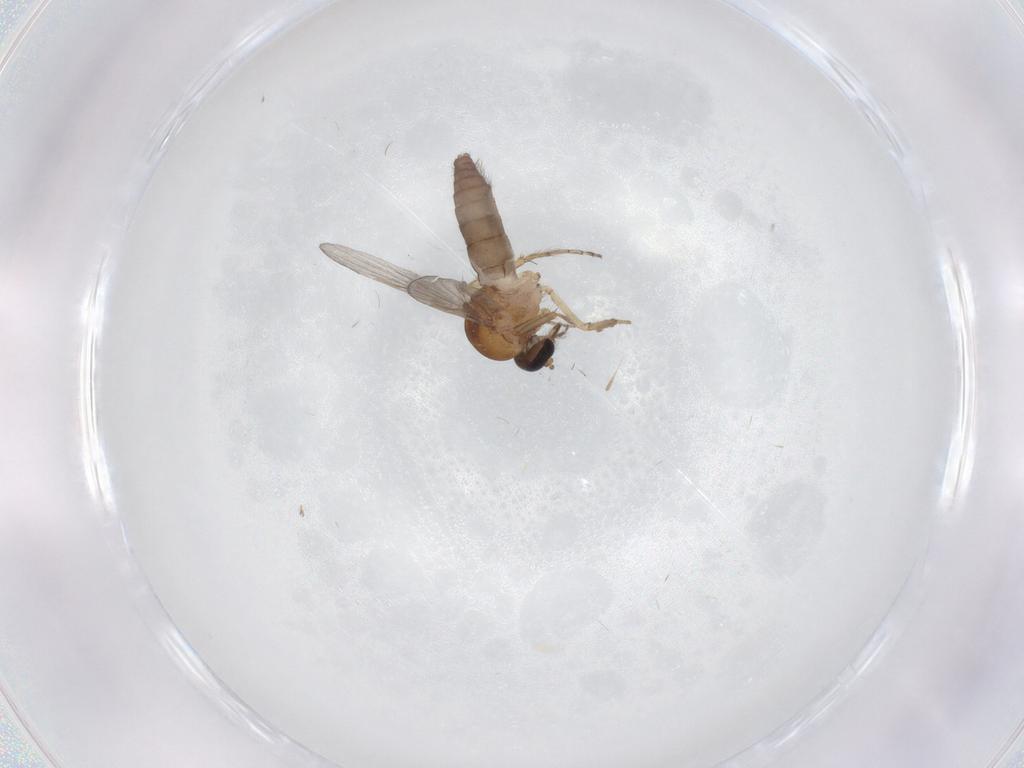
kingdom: Animalia
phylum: Arthropoda
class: Insecta
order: Diptera
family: Ceratopogonidae
